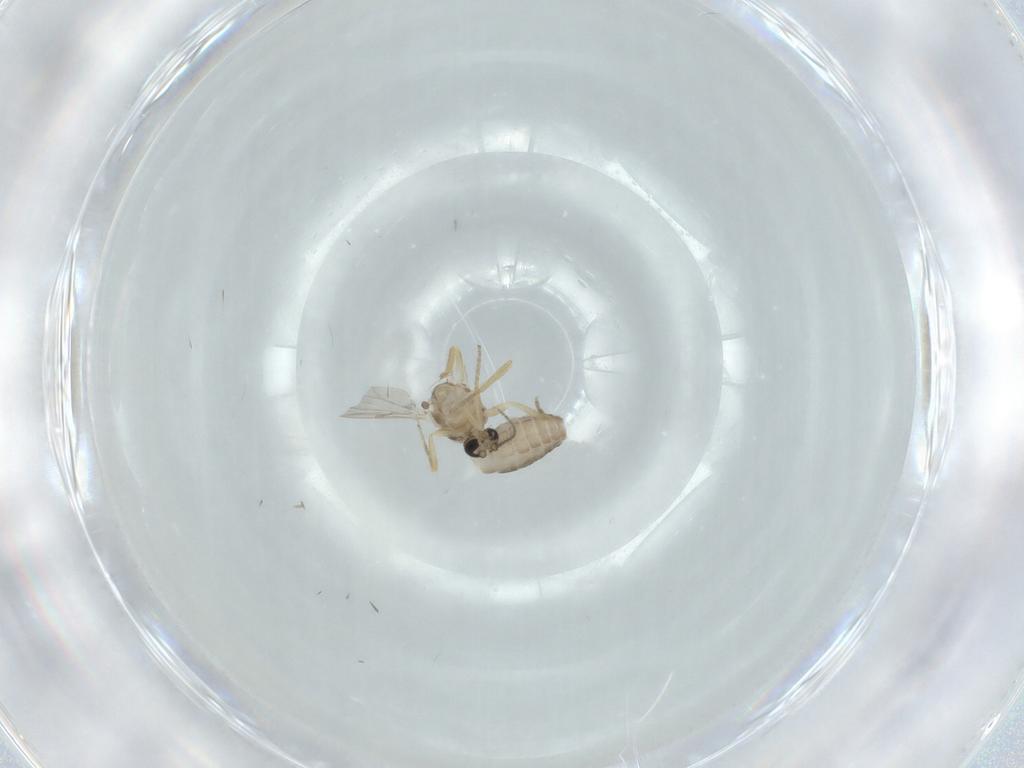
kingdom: Animalia
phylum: Arthropoda
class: Insecta
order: Diptera
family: Ceratopogonidae
